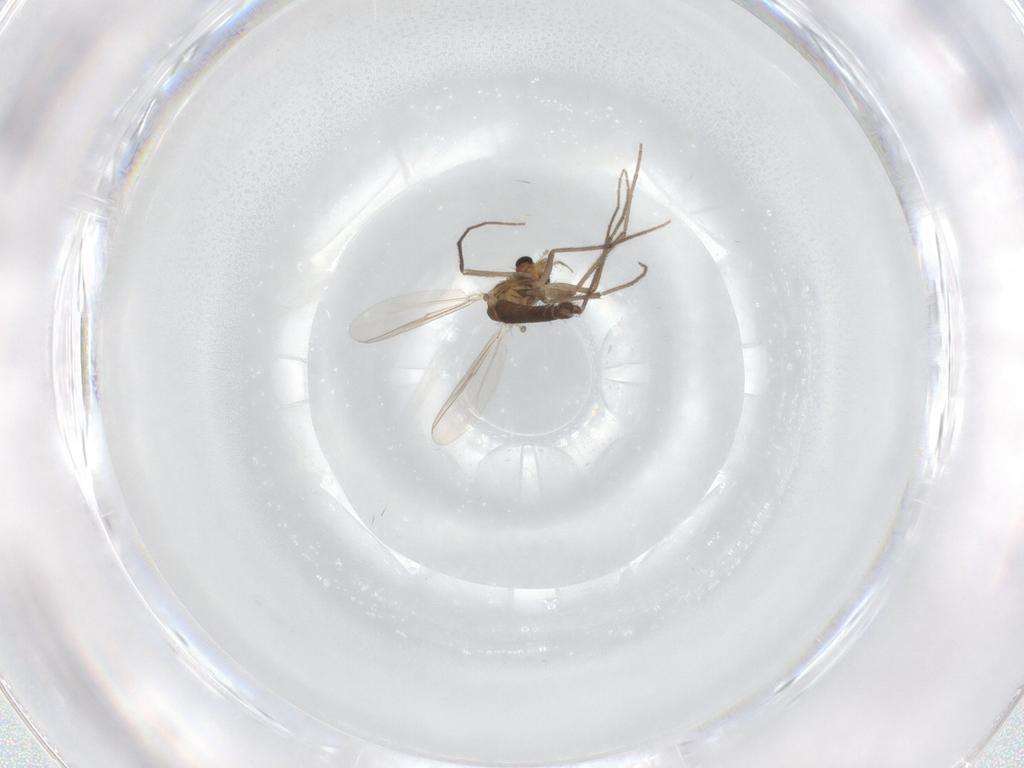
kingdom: Animalia
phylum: Arthropoda
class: Insecta
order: Diptera
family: Chironomidae
